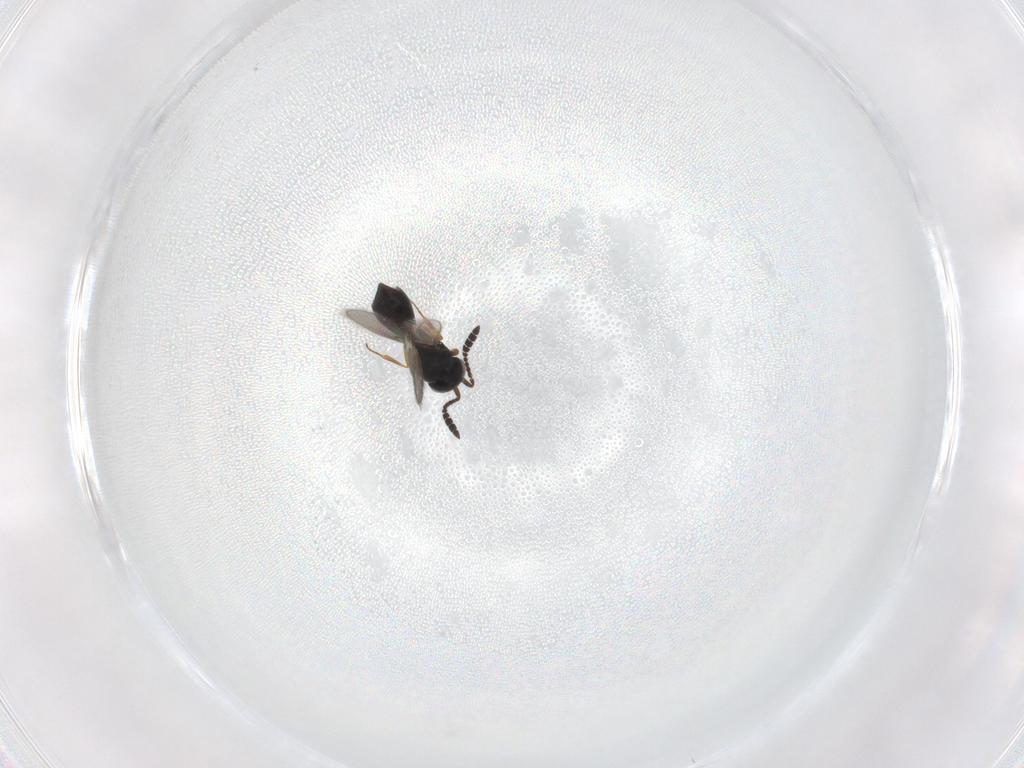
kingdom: Animalia
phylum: Arthropoda
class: Insecta
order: Hymenoptera
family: Scelionidae
